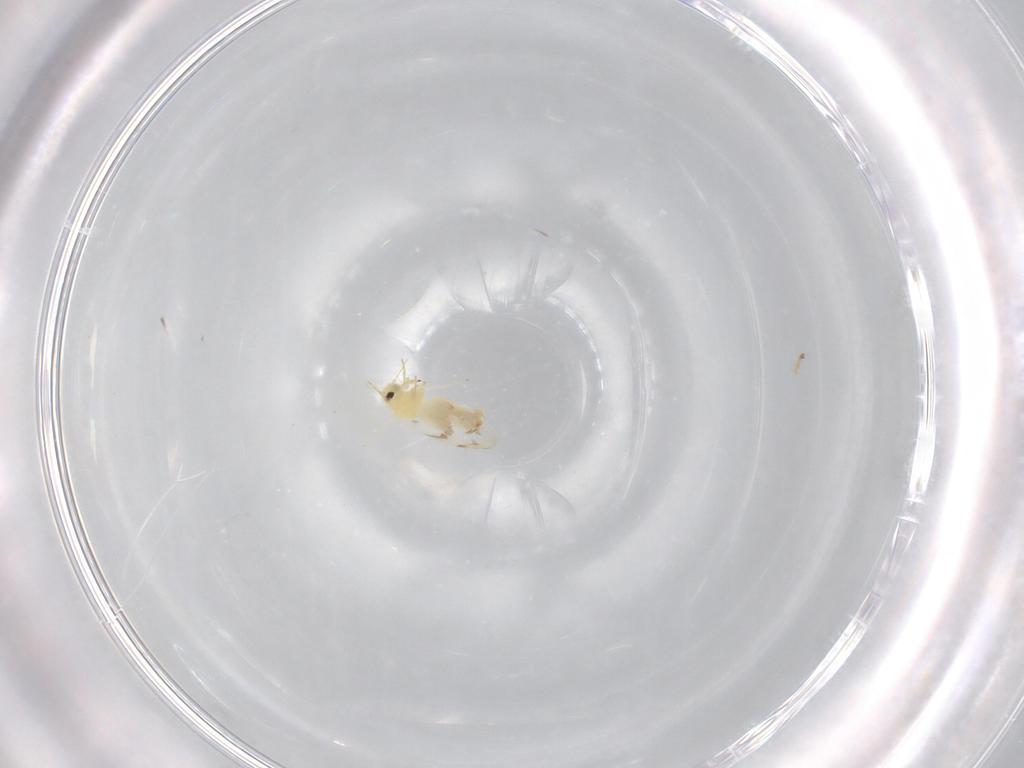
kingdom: Animalia
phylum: Arthropoda
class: Insecta
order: Hemiptera
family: Aleyrodidae
